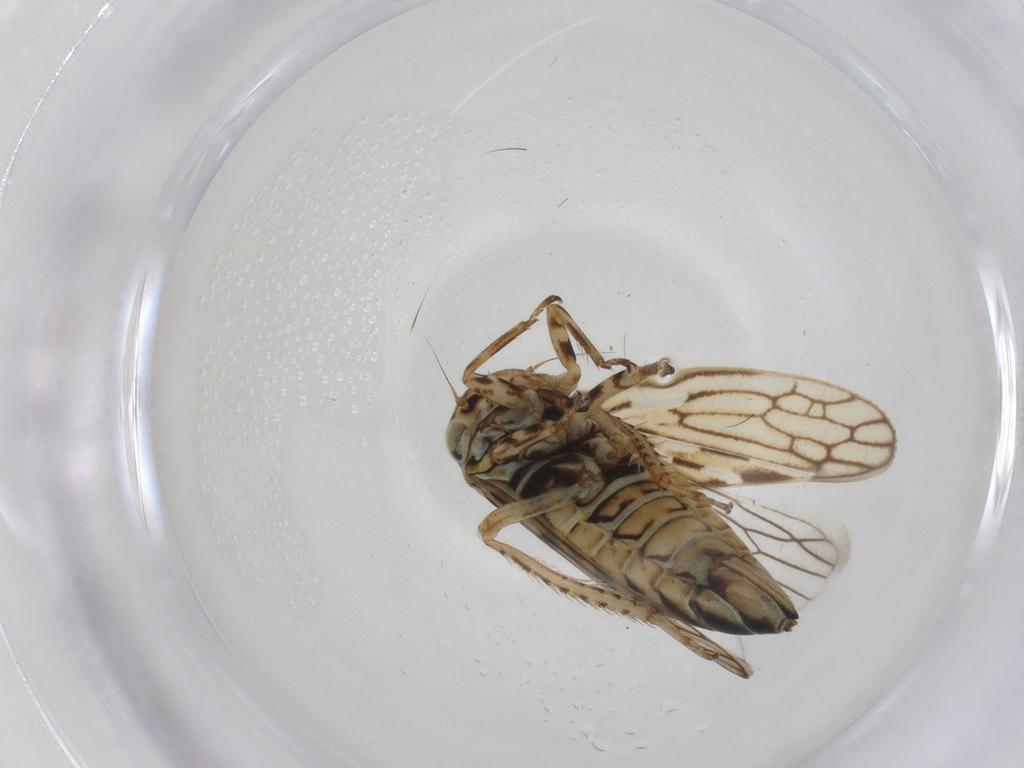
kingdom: Animalia
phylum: Arthropoda
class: Insecta
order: Hemiptera
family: Cicadellidae
